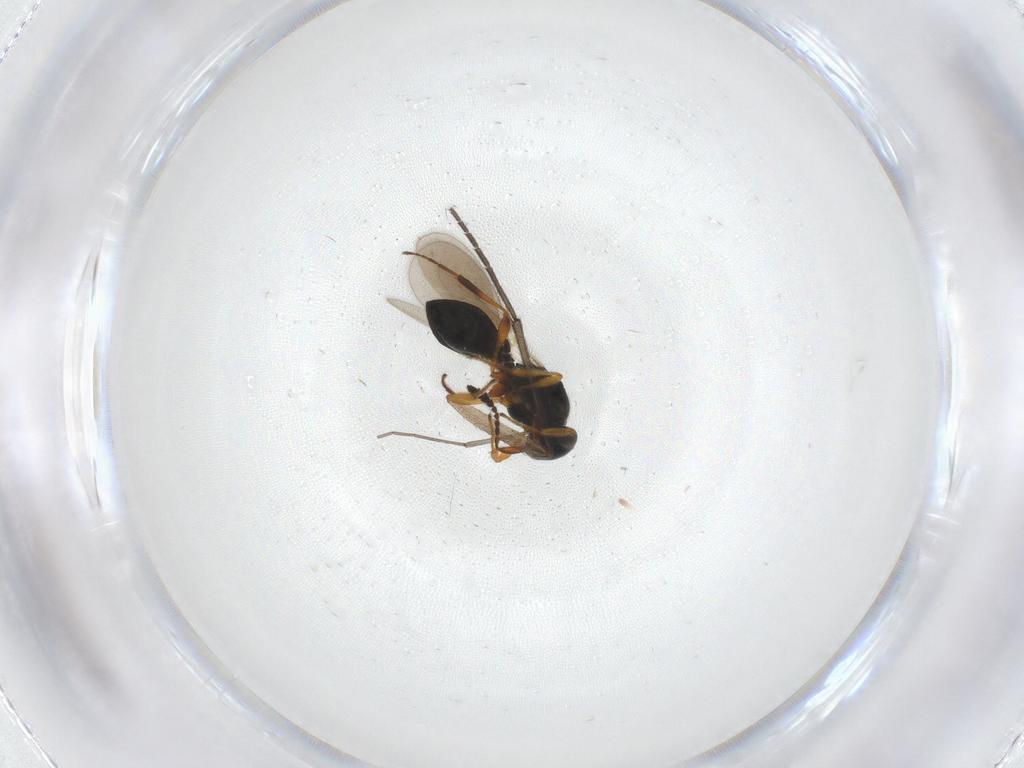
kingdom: Animalia
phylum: Arthropoda
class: Insecta
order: Hymenoptera
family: Platygastridae
